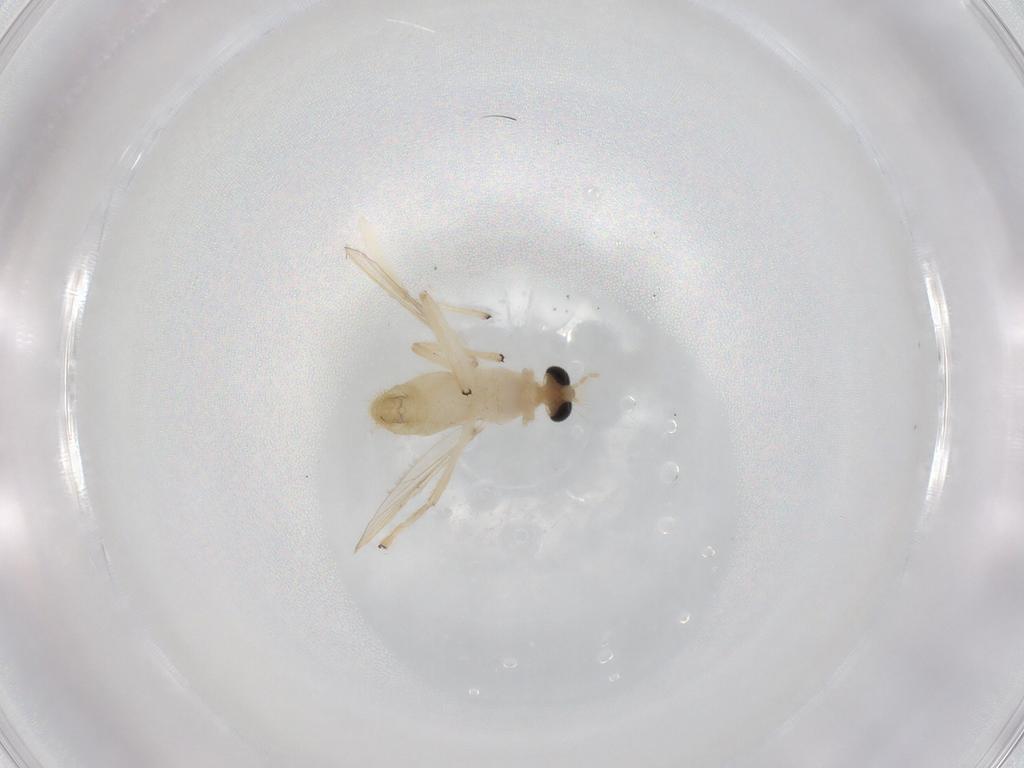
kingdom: Animalia
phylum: Arthropoda
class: Insecta
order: Diptera
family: Chironomidae
